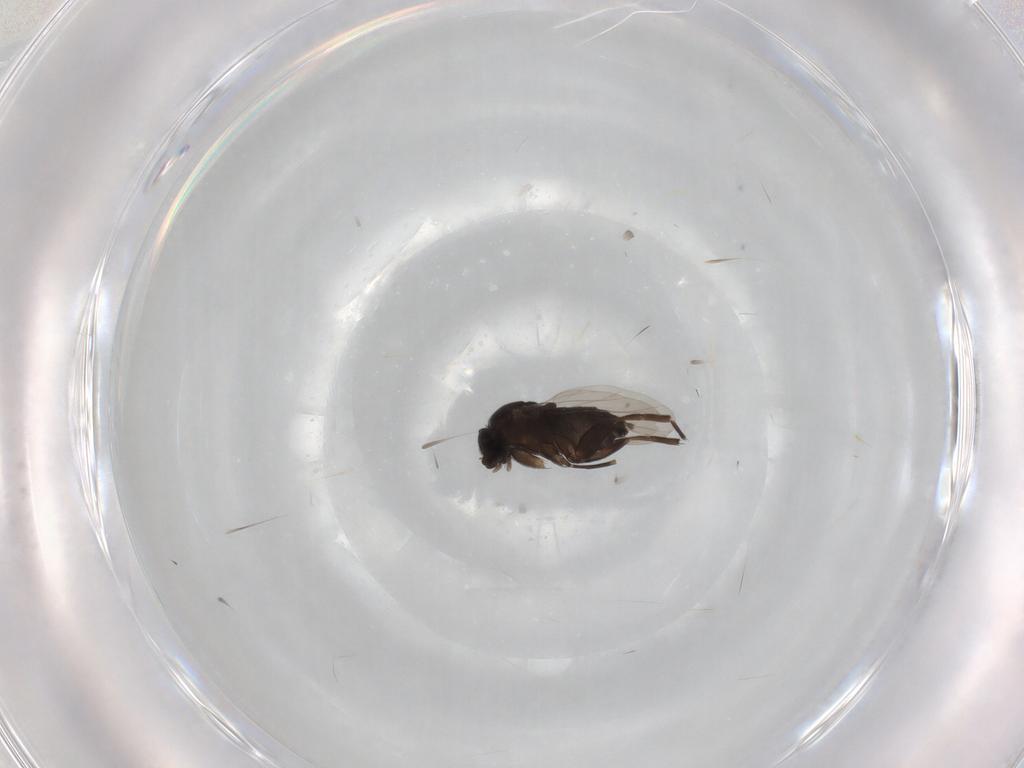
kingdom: Animalia
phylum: Arthropoda
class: Insecta
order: Diptera
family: Phoridae
